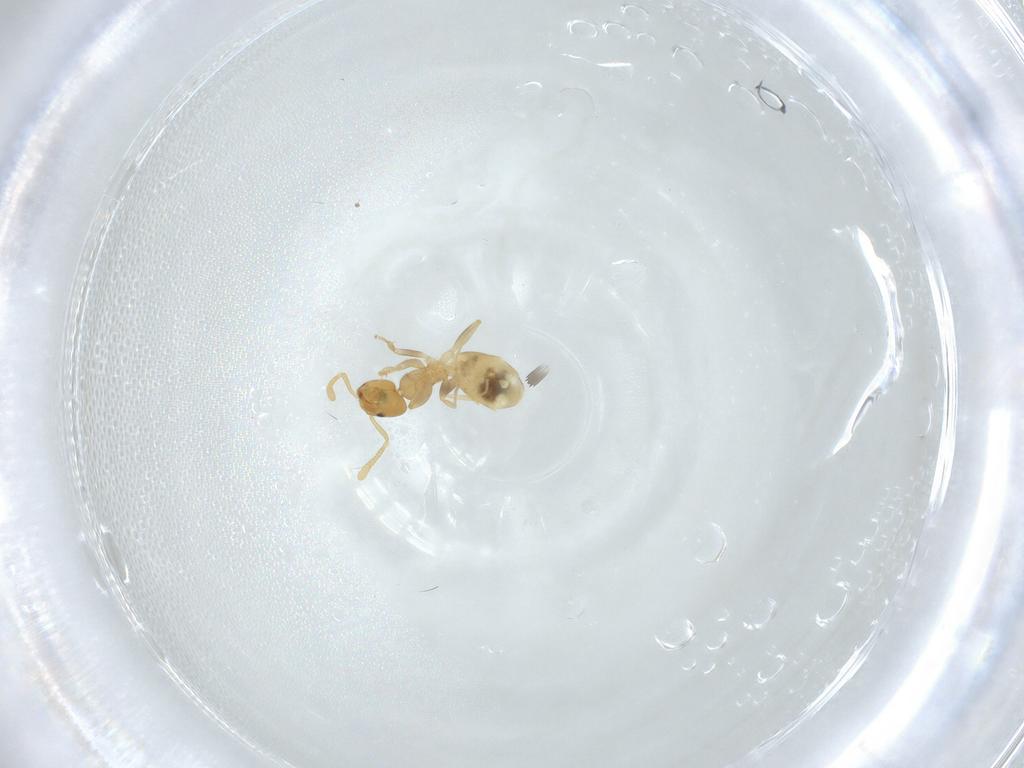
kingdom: Animalia
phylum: Arthropoda
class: Insecta
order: Hymenoptera
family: Formicidae
